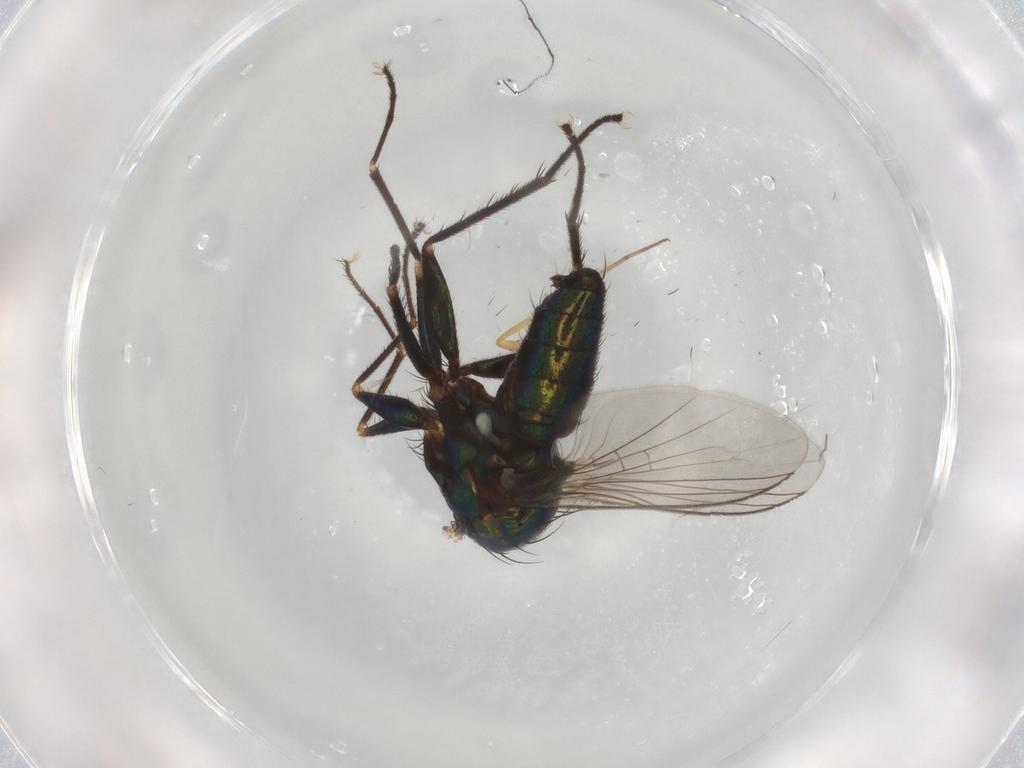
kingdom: Animalia
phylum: Arthropoda
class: Insecta
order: Diptera
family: Dolichopodidae
